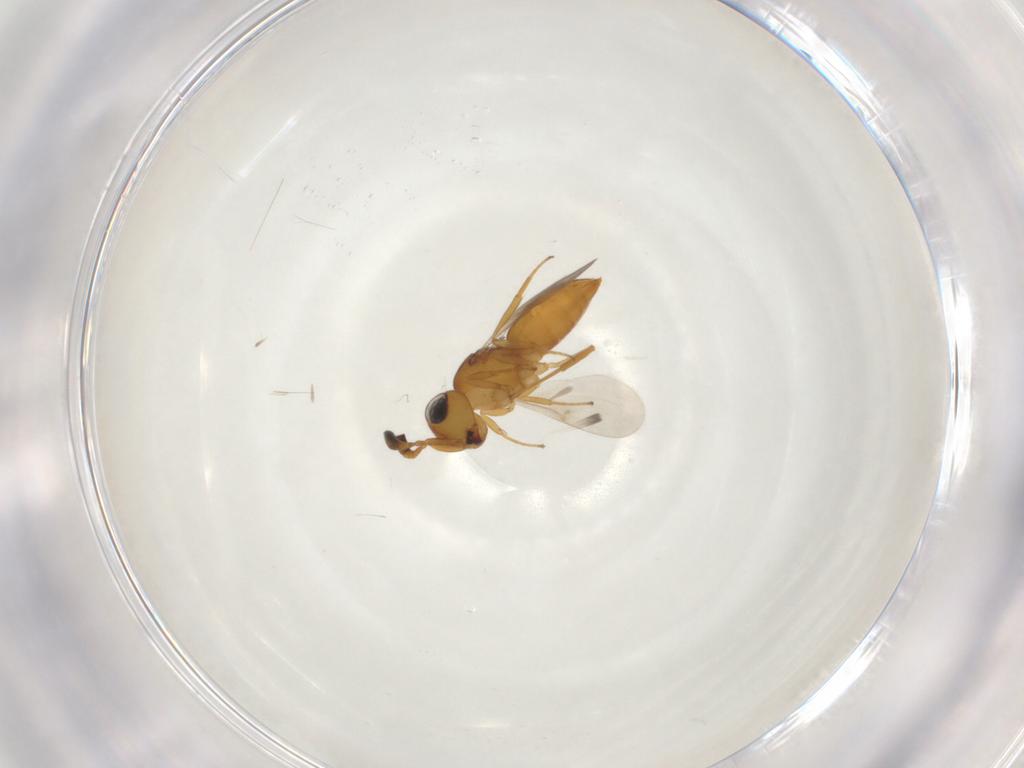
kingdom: Animalia
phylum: Arthropoda
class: Insecta
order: Hymenoptera
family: Scelionidae
